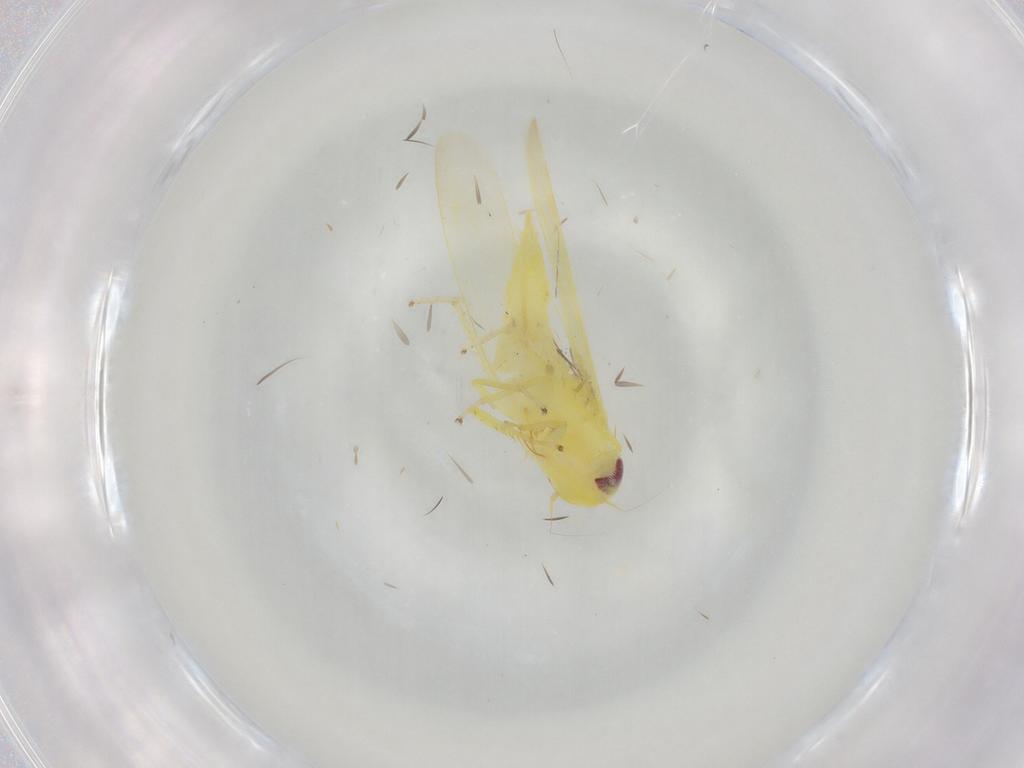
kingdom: Animalia
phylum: Arthropoda
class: Insecta
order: Hemiptera
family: Cicadellidae
